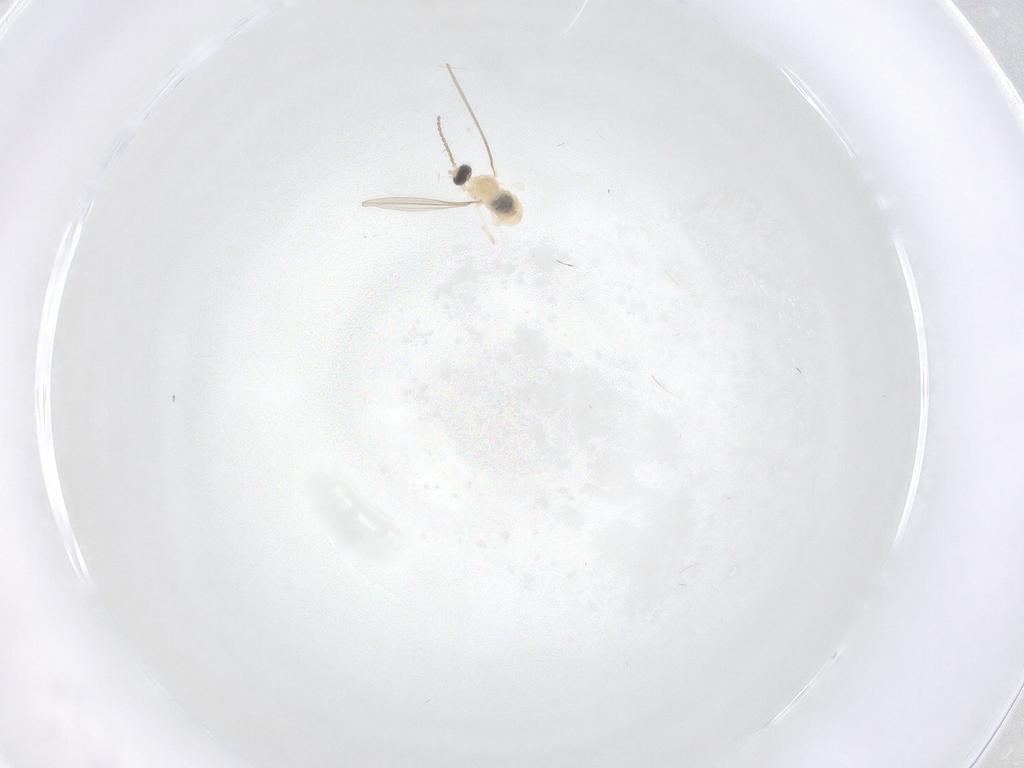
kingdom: Animalia
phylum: Arthropoda
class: Insecta
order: Diptera
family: Cecidomyiidae
